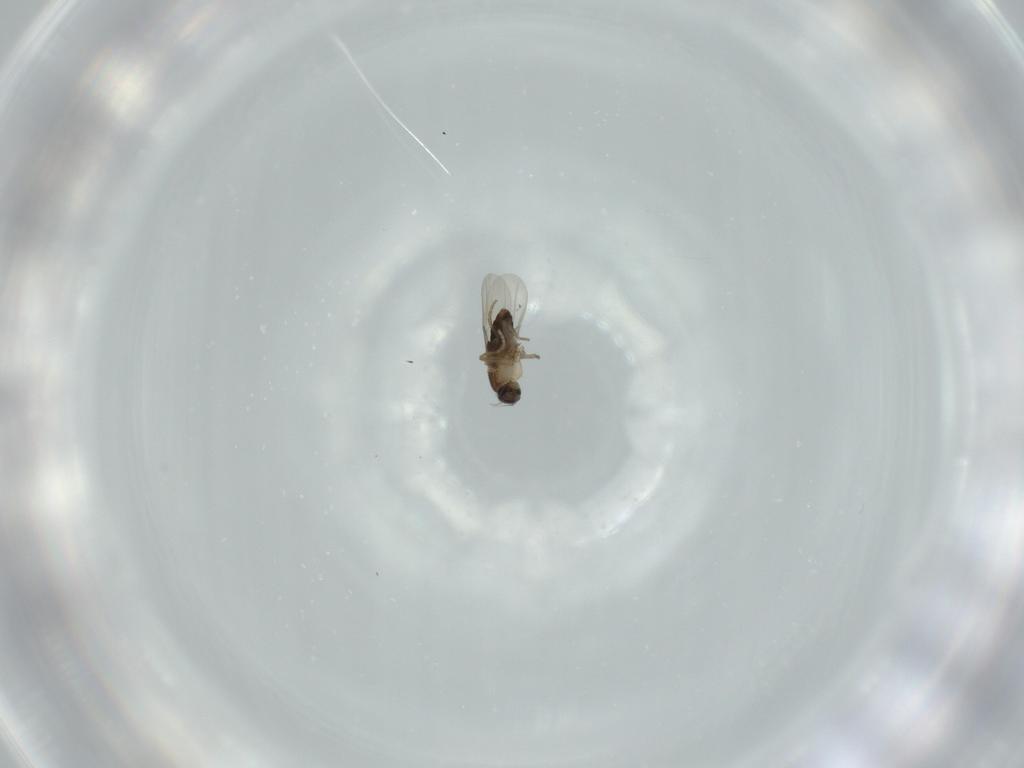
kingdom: Animalia
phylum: Arthropoda
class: Insecta
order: Diptera
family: Phoridae
